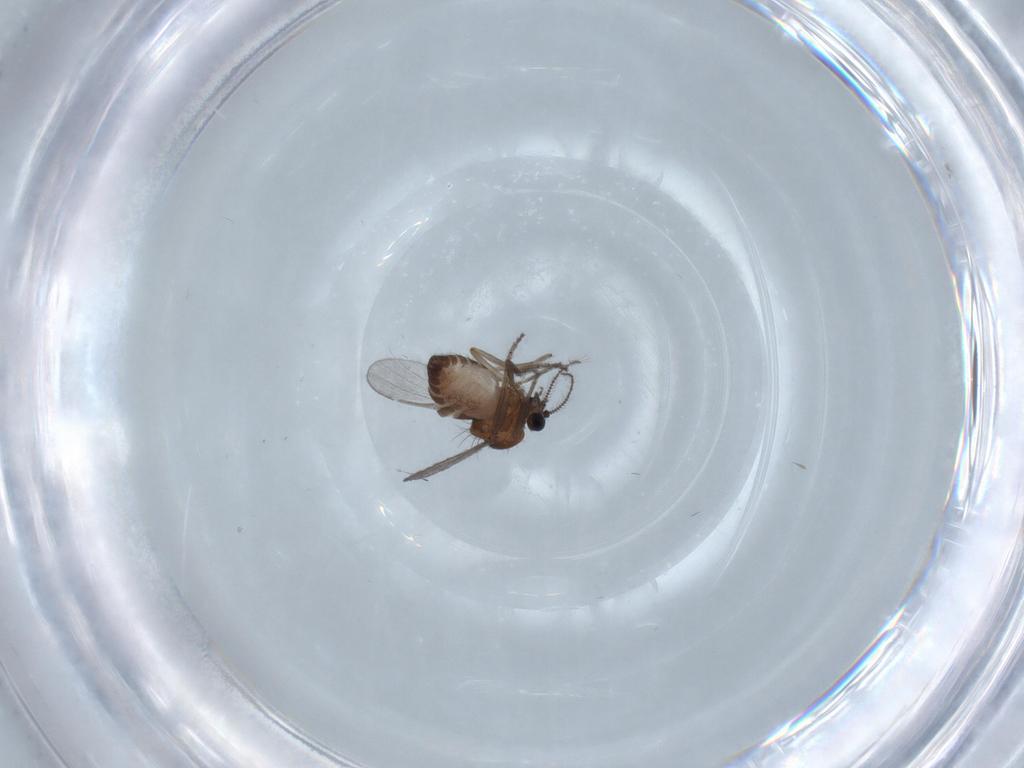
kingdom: Animalia
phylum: Arthropoda
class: Insecta
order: Diptera
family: Ceratopogonidae
